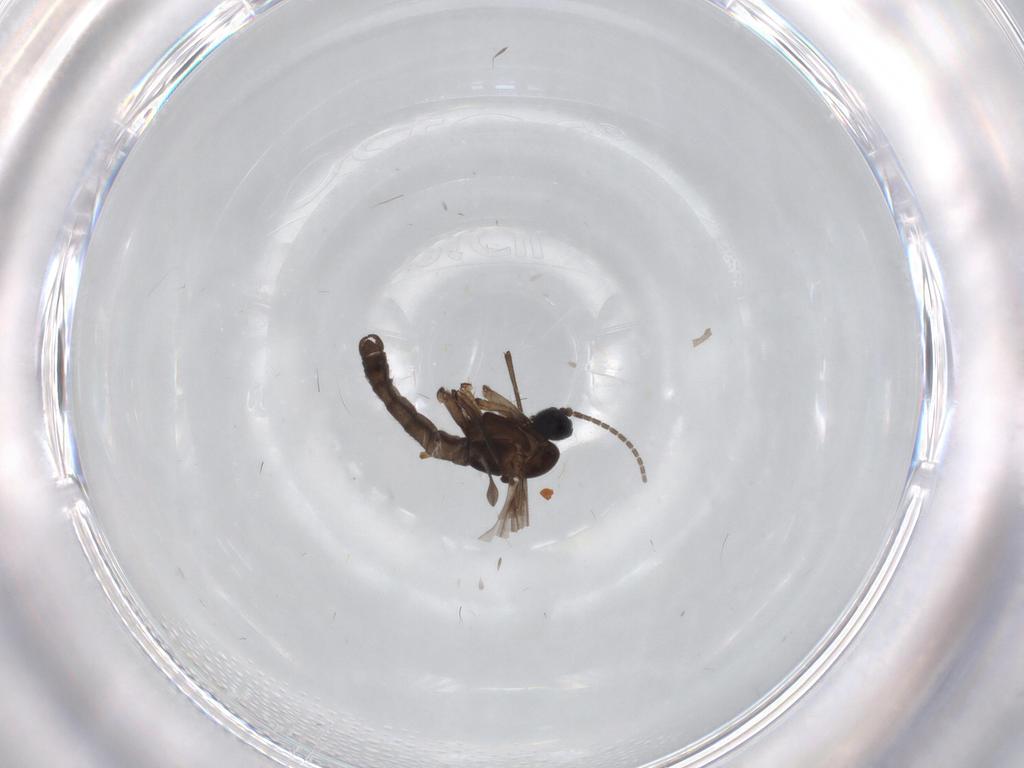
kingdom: Animalia
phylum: Arthropoda
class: Insecta
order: Diptera
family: Sciaridae
